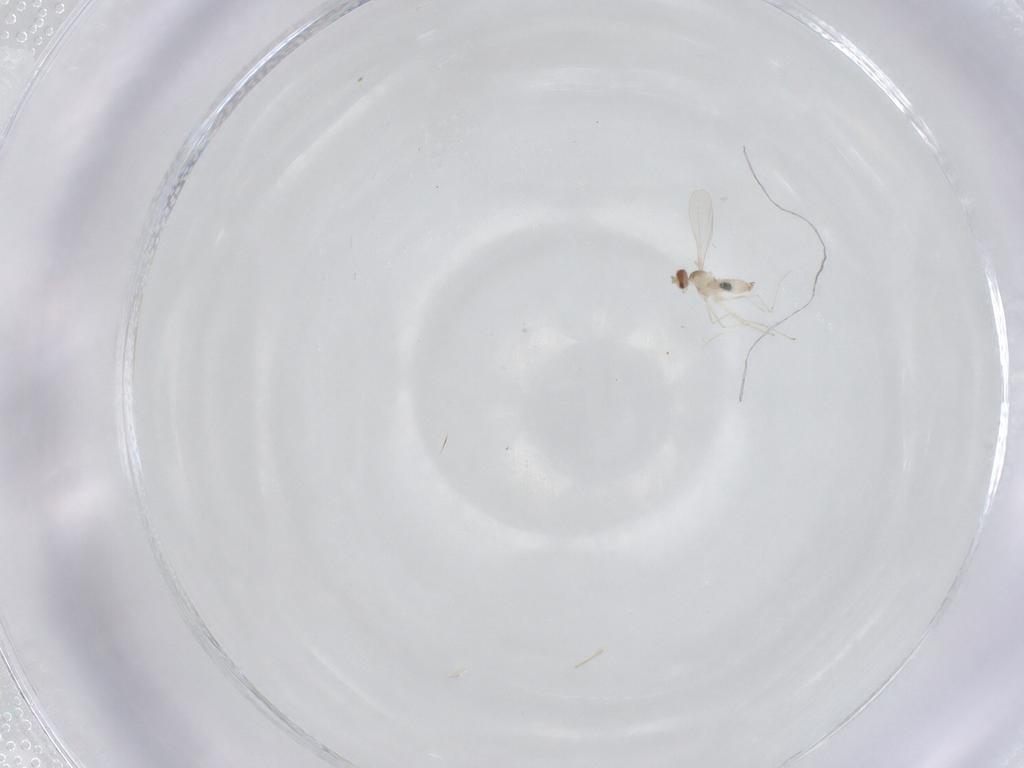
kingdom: Animalia
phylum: Arthropoda
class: Insecta
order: Diptera
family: Cecidomyiidae
